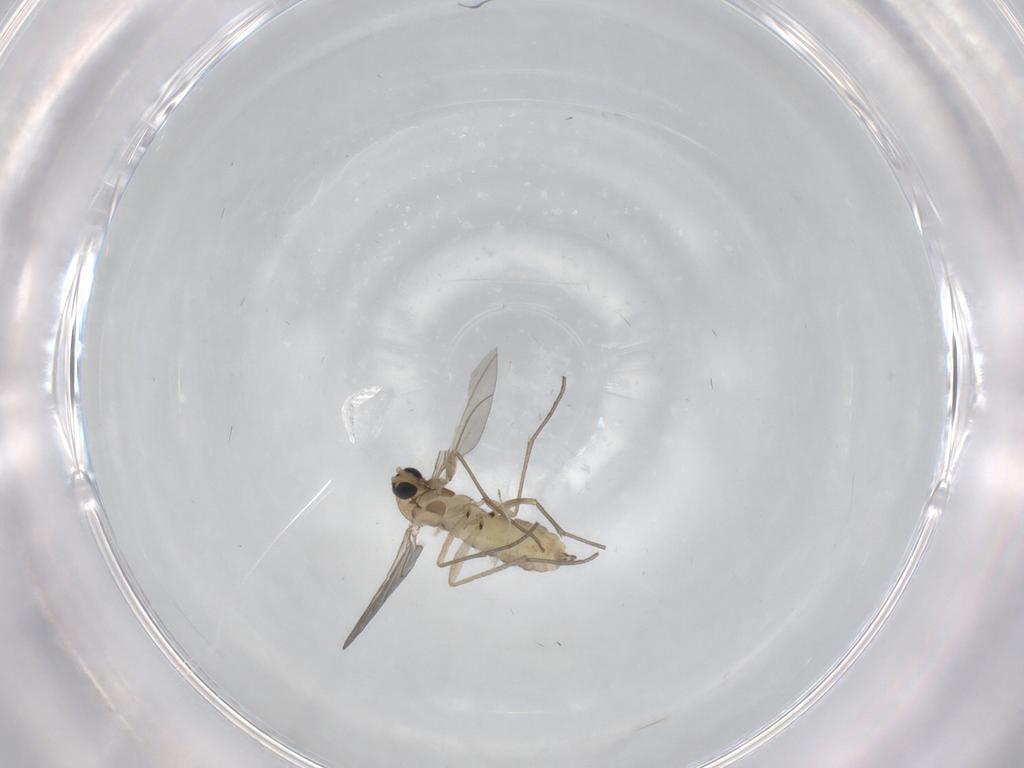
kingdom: Animalia
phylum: Arthropoda
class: Insecta
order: Diptera
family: Sciaridae
